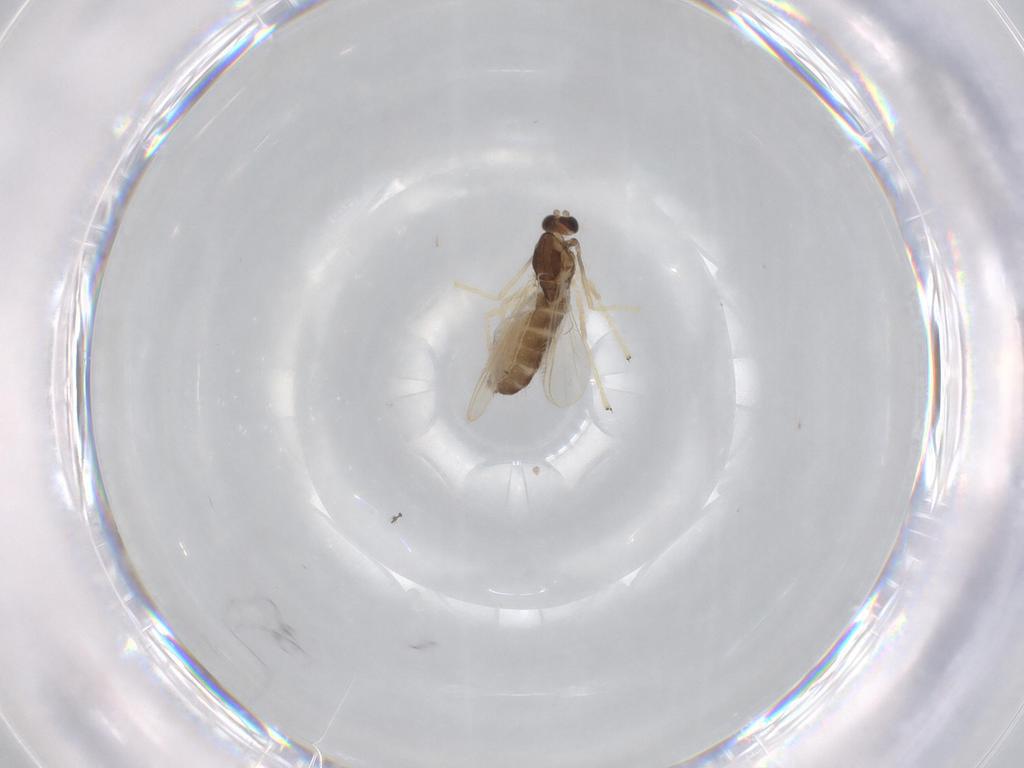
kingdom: Animalia
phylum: Arthropoda
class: Insecta
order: Diptera
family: Chironomidae
